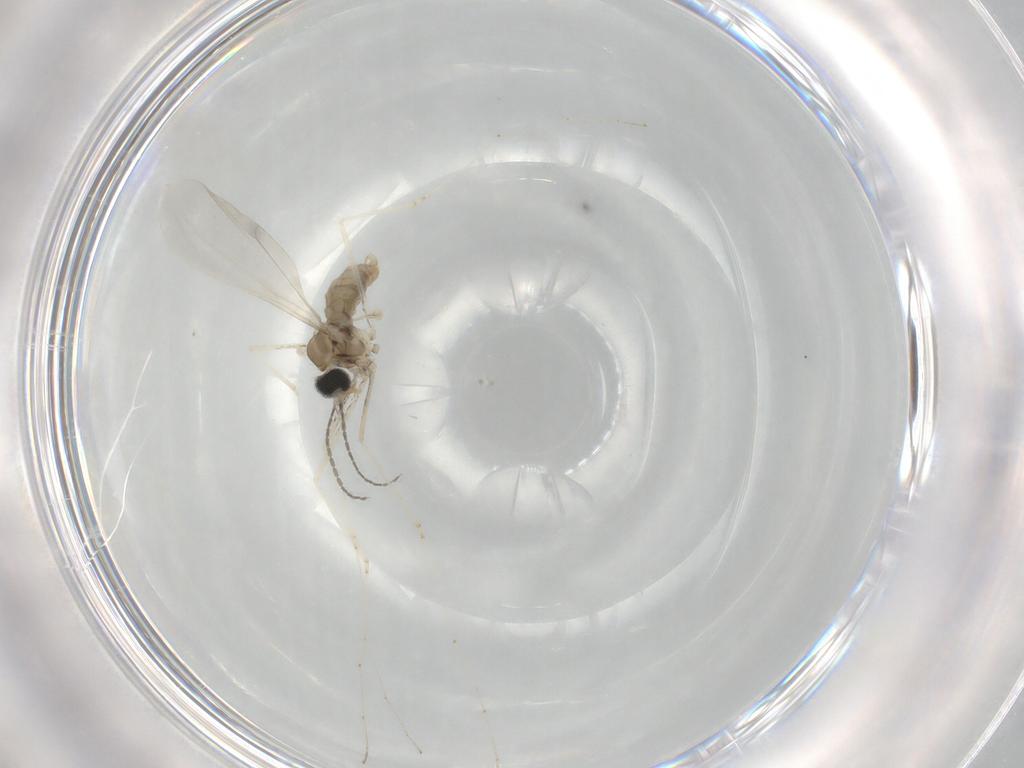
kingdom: Animalia
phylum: Arthropoda
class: Insecta
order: Diptera
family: Cecidomyiidae
